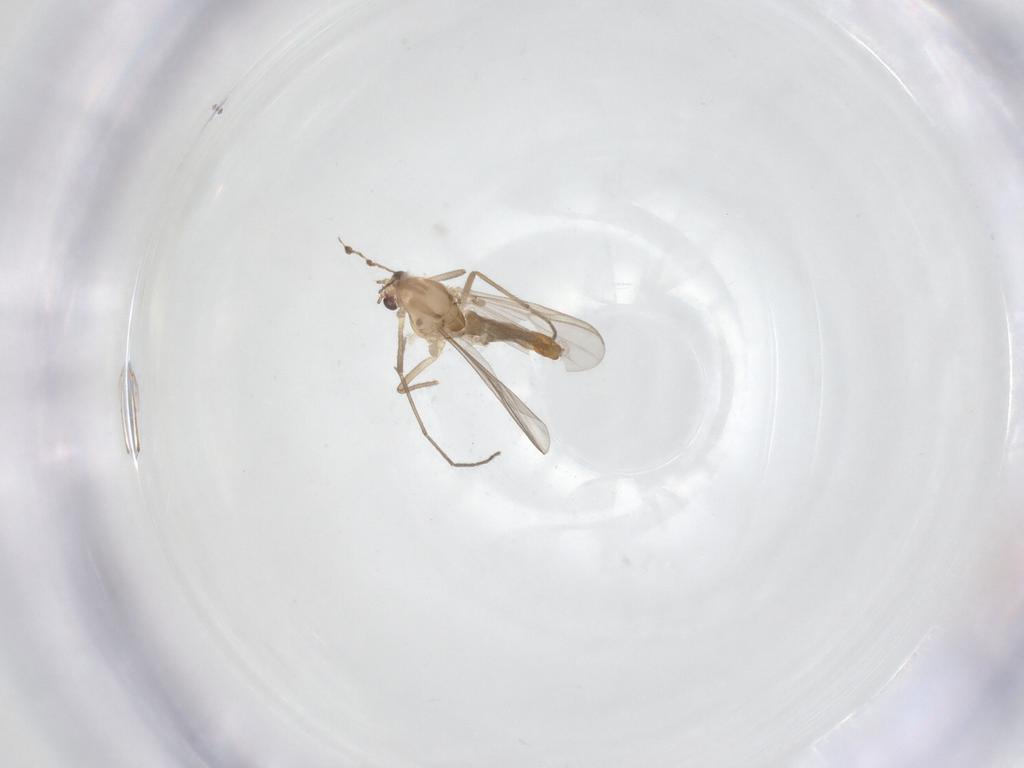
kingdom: Animalia
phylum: Arthropoda
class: Insecta
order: Diptera
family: Chironomidae
